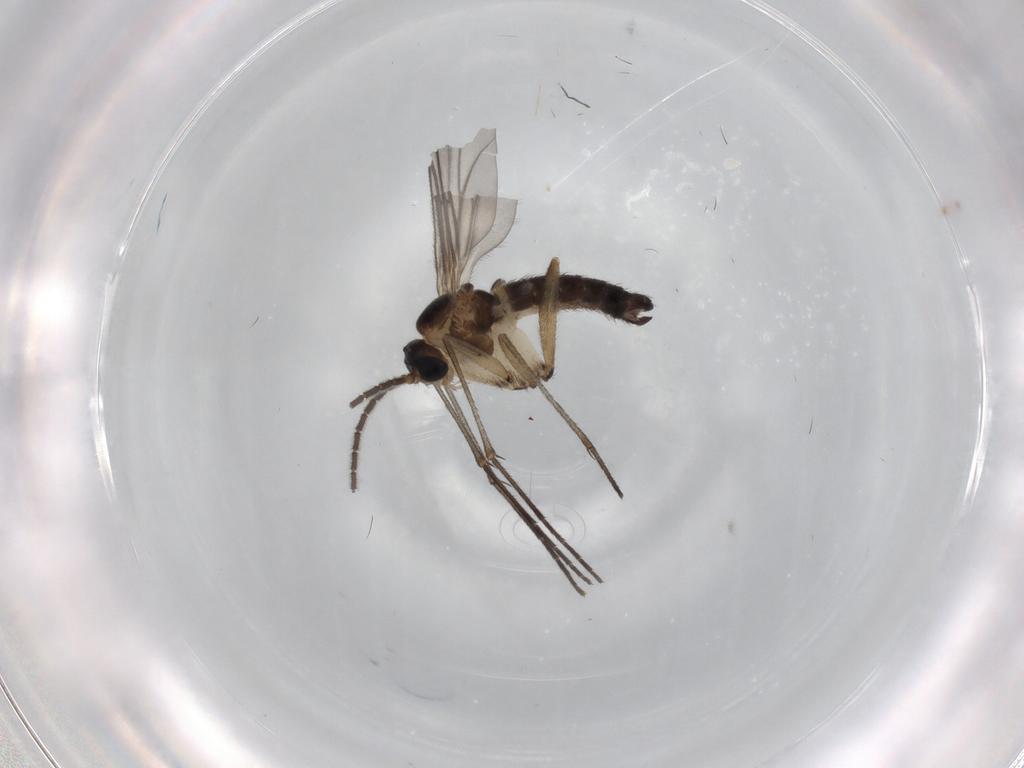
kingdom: Animalia
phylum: Arthropoda
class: Insecta
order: Diptera
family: Sciaridae
